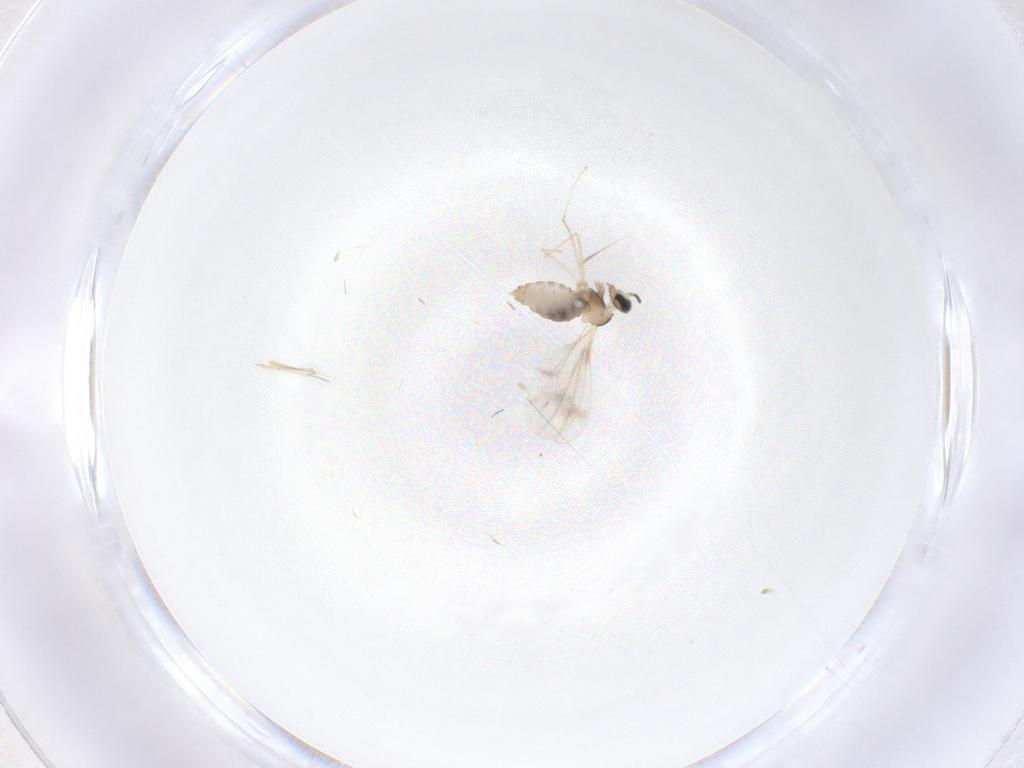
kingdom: Animalia
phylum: Arthropoda
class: Insecta
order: Diptera
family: Cecidomyiidae
